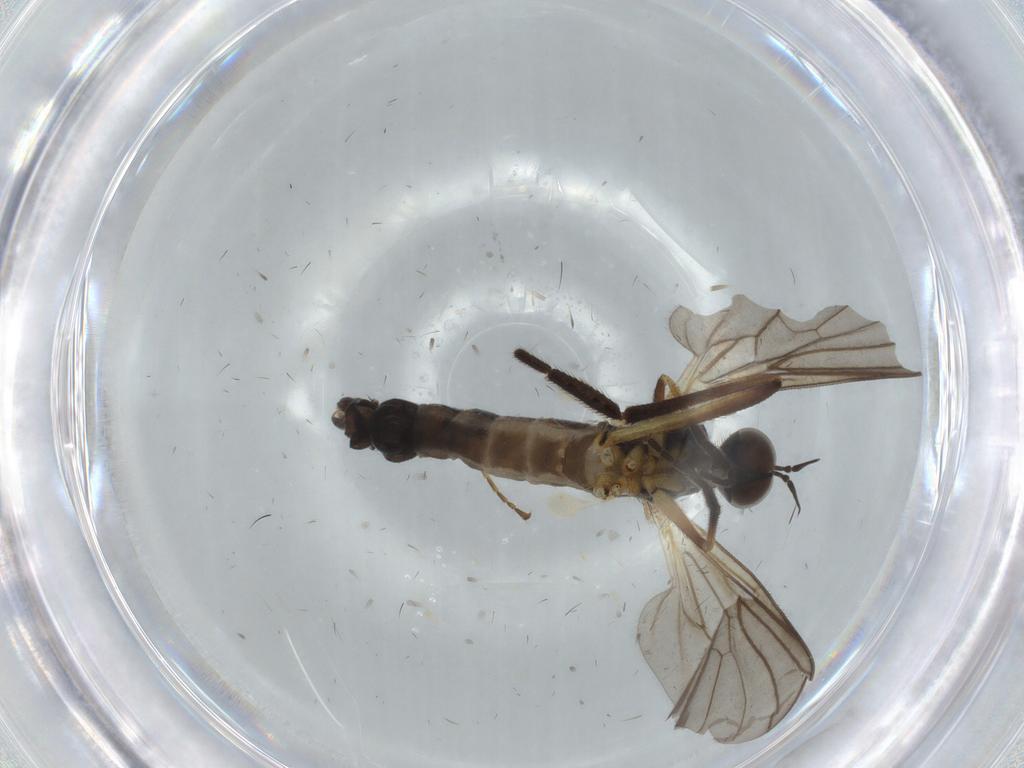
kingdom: Animalia
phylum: Arthropoda
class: Insecta
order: Diptera
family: Empididae
